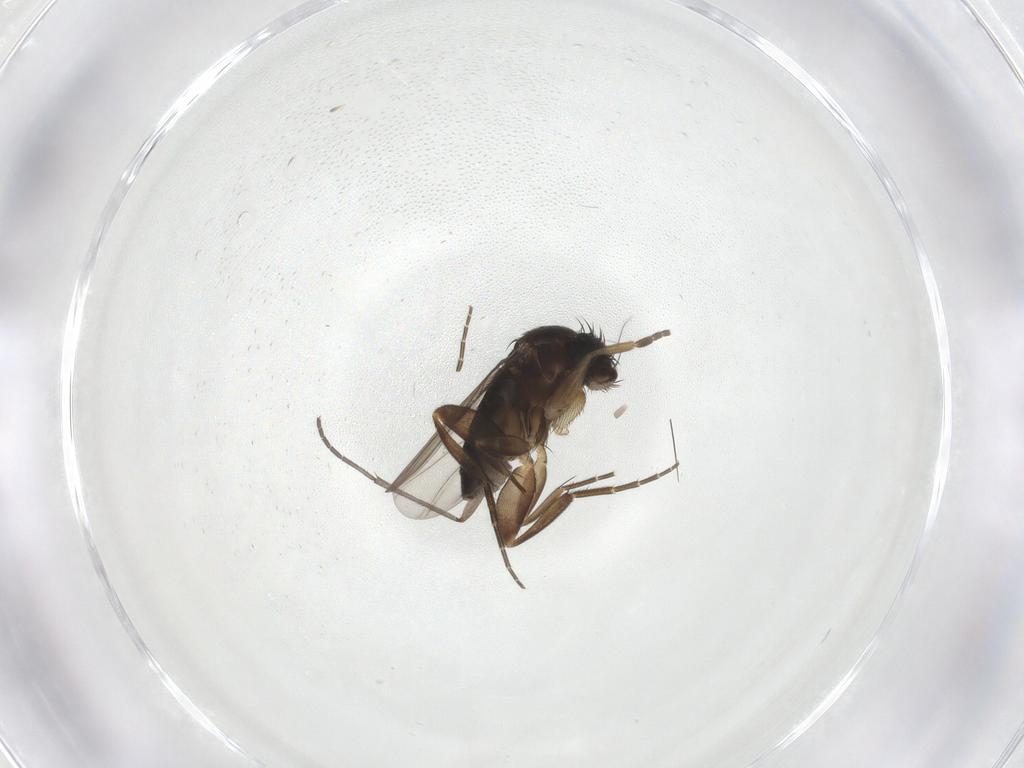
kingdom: Animalia
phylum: Arthropoda
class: Insecta
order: Diptera
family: Phoridae
